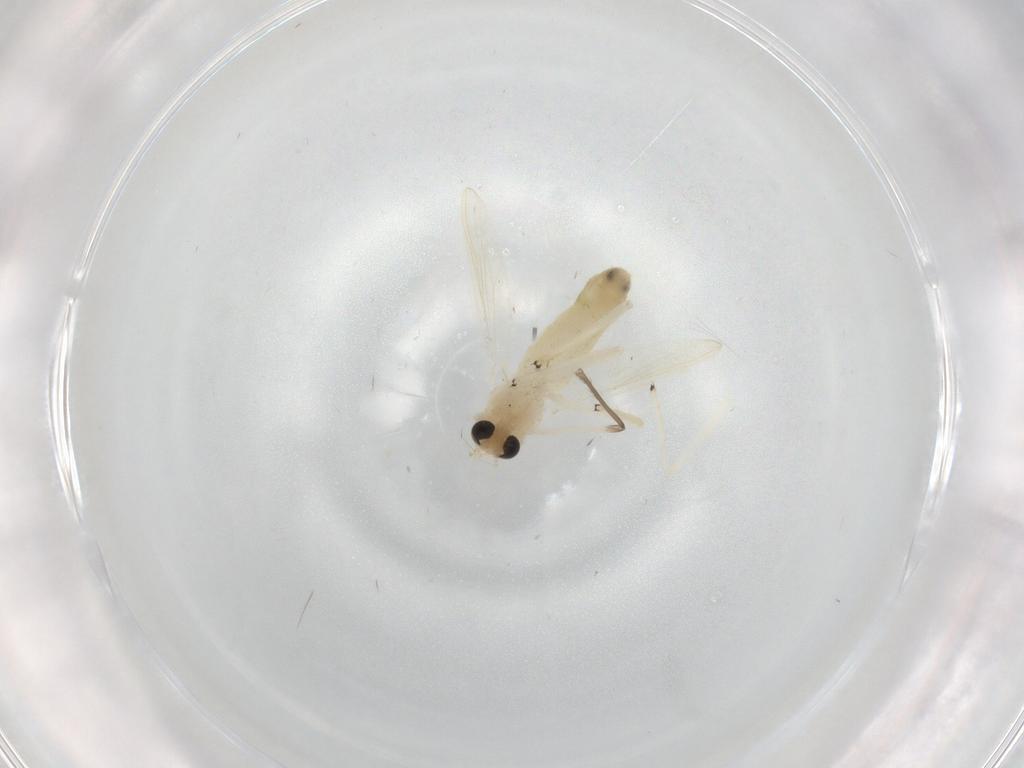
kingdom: Animalia
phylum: Arthropoda
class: Insecta
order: Diptera
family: Chironomidae
